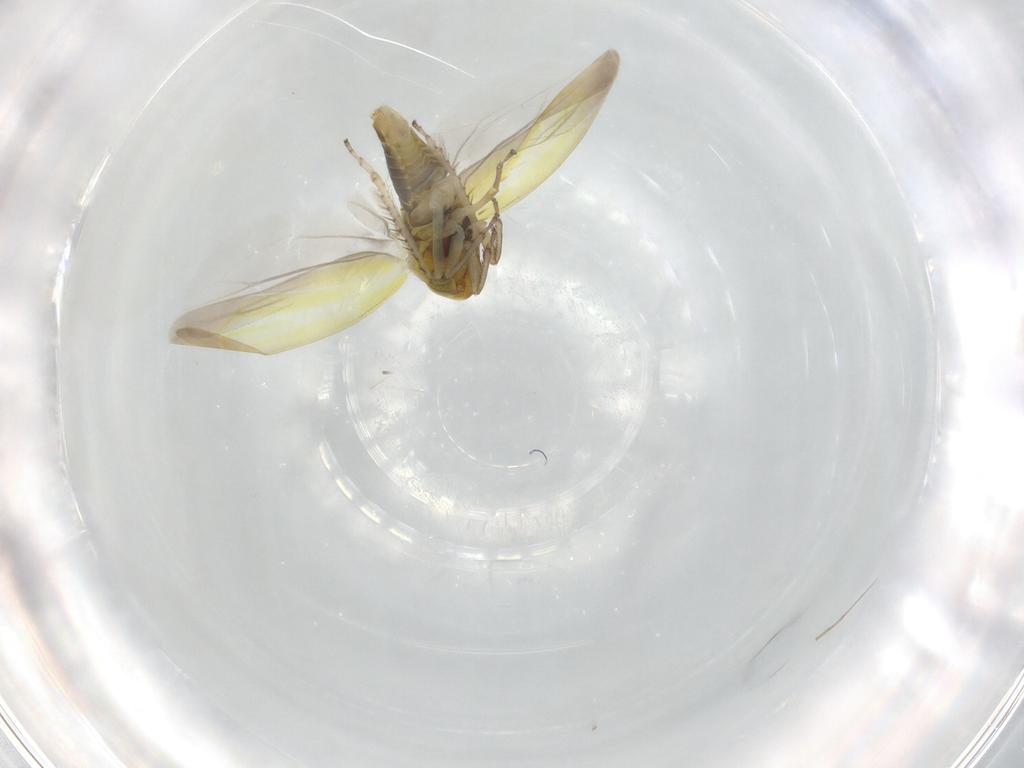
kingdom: Animalia
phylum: Arthropoda
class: Insecta
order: Hemiptera
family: Cicadellidae
